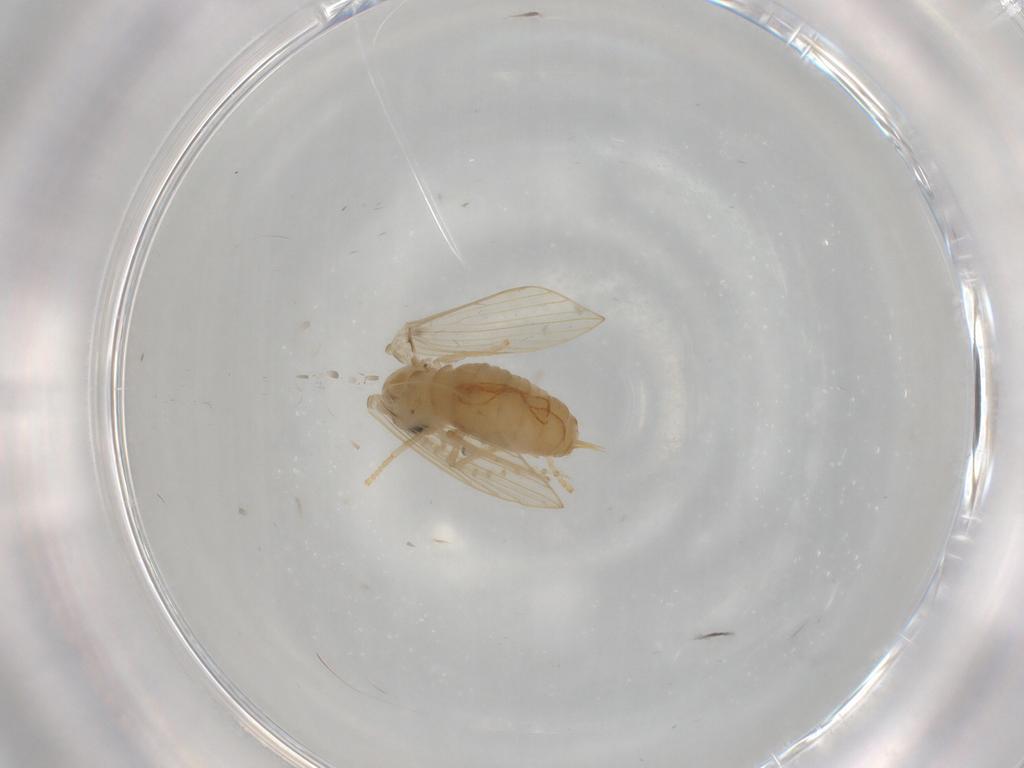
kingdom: Animalia
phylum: Arthropoda
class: Insecta
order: Diptera
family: Psychodidae
